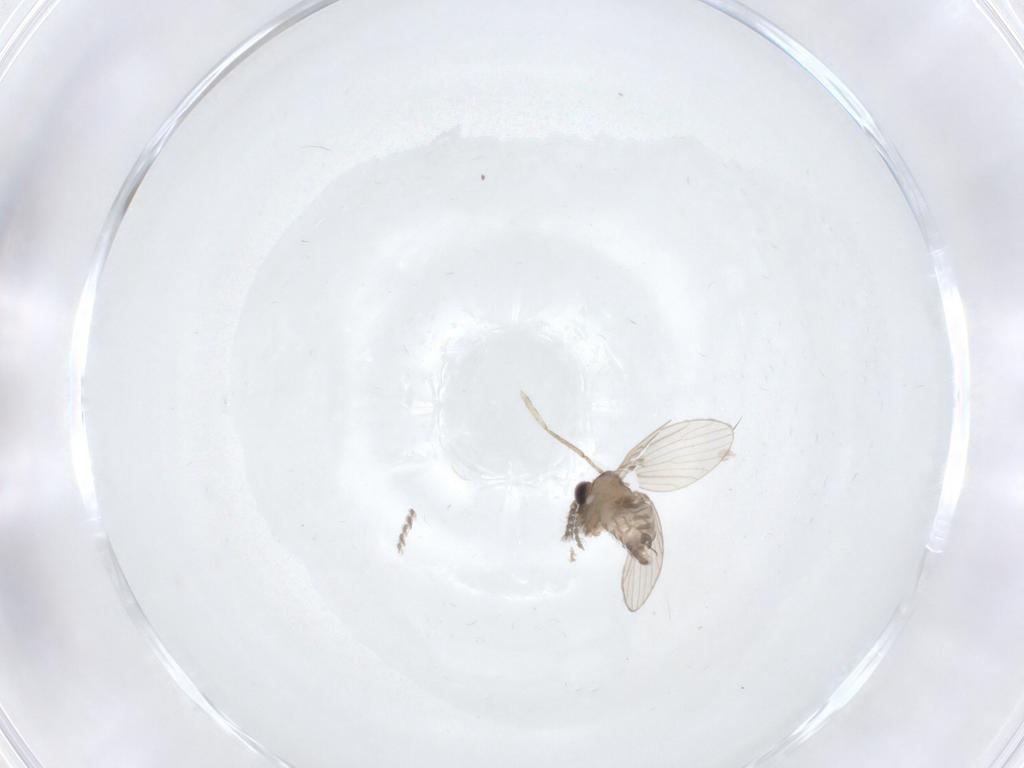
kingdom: Animalia
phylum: Arthropoda
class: Insecta
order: Diptera
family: Psychodidae
